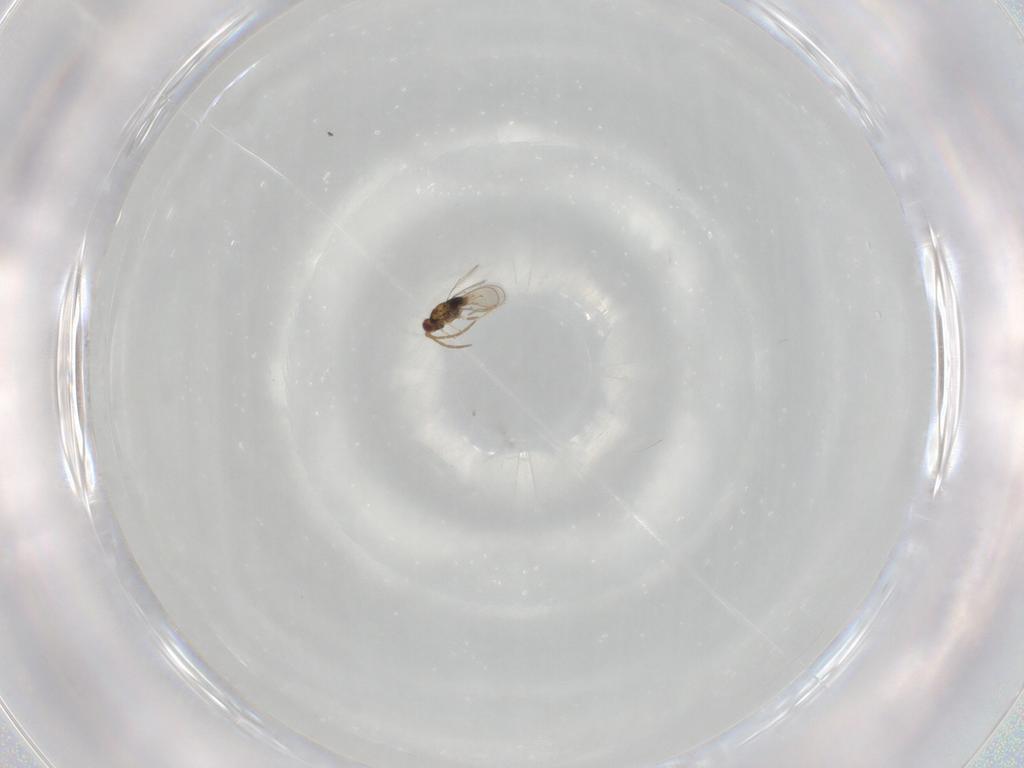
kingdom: Animalia
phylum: Arthropoda
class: Insecta
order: Hymenoptera
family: Aphelinidae
